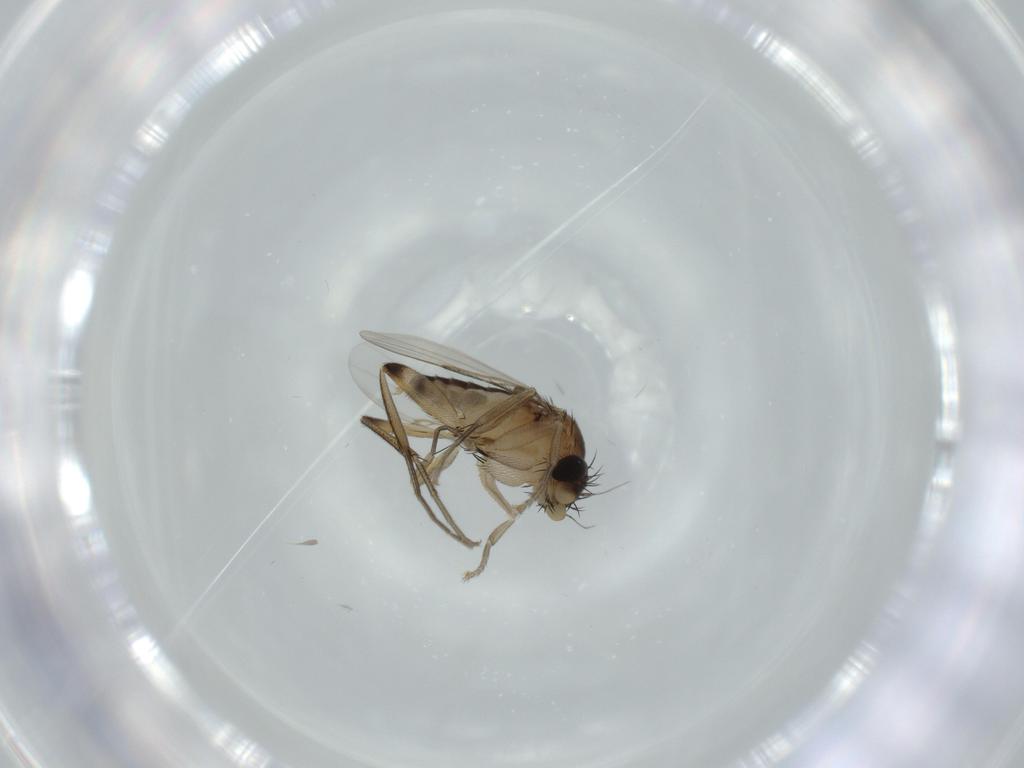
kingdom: Animalia
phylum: Arthropoda
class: Insecta
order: Diptera
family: Phoridae
